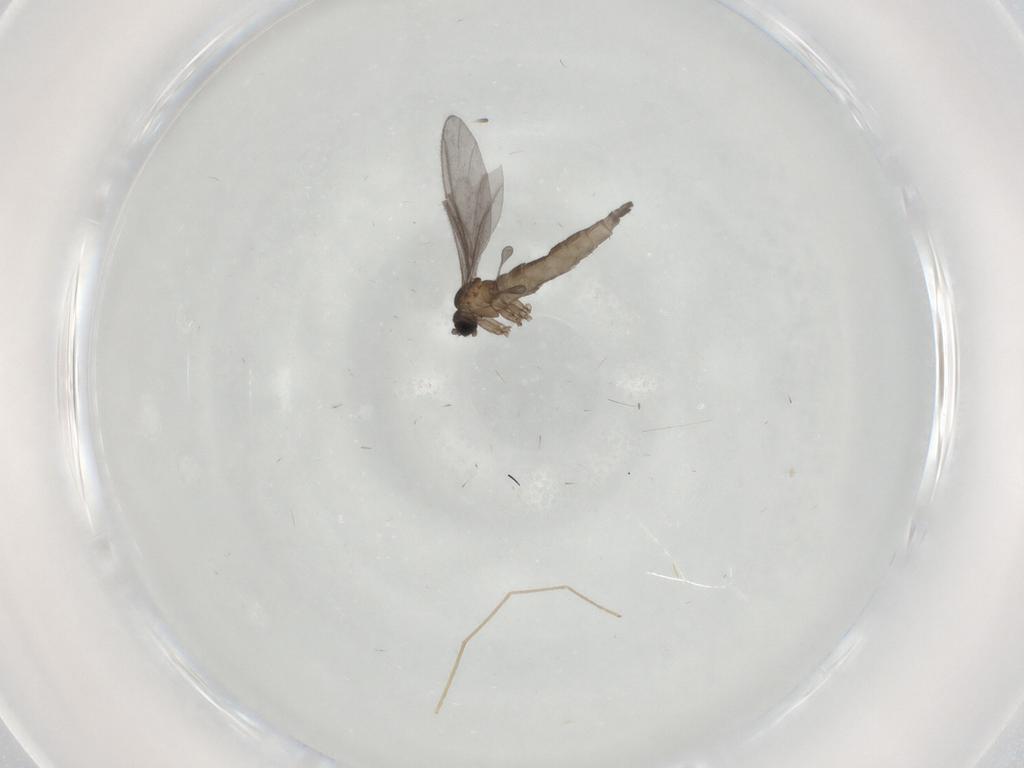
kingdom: Animalia
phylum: Arthropoda
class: Insecta
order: Diptera
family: Sciaridae
